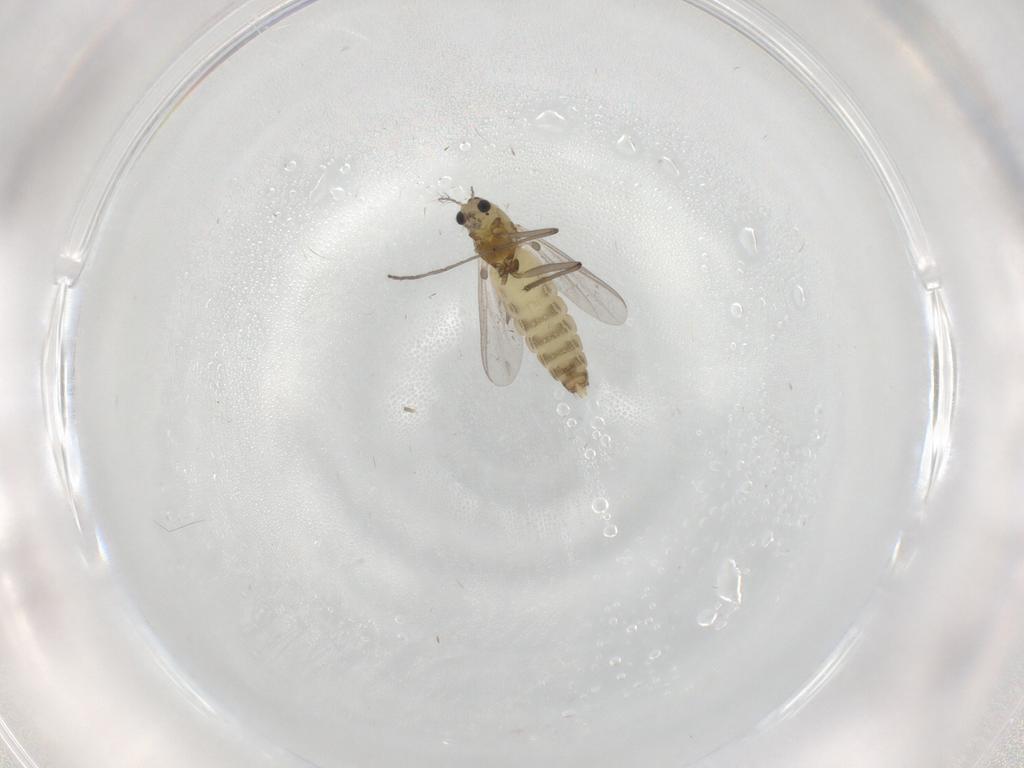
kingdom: Animalia
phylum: Arthropoda
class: Insecta
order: Diptera
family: Chironomidae
